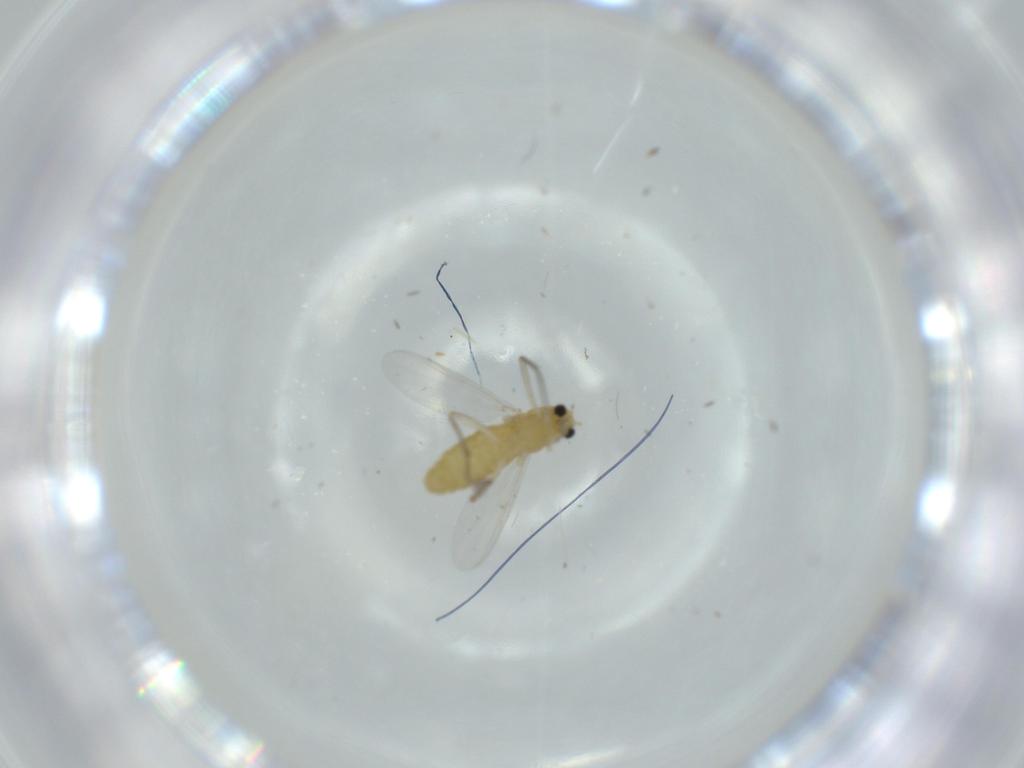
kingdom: Animalia
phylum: Arthropoda
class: Insecta
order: Diptera
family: Chironomidae
